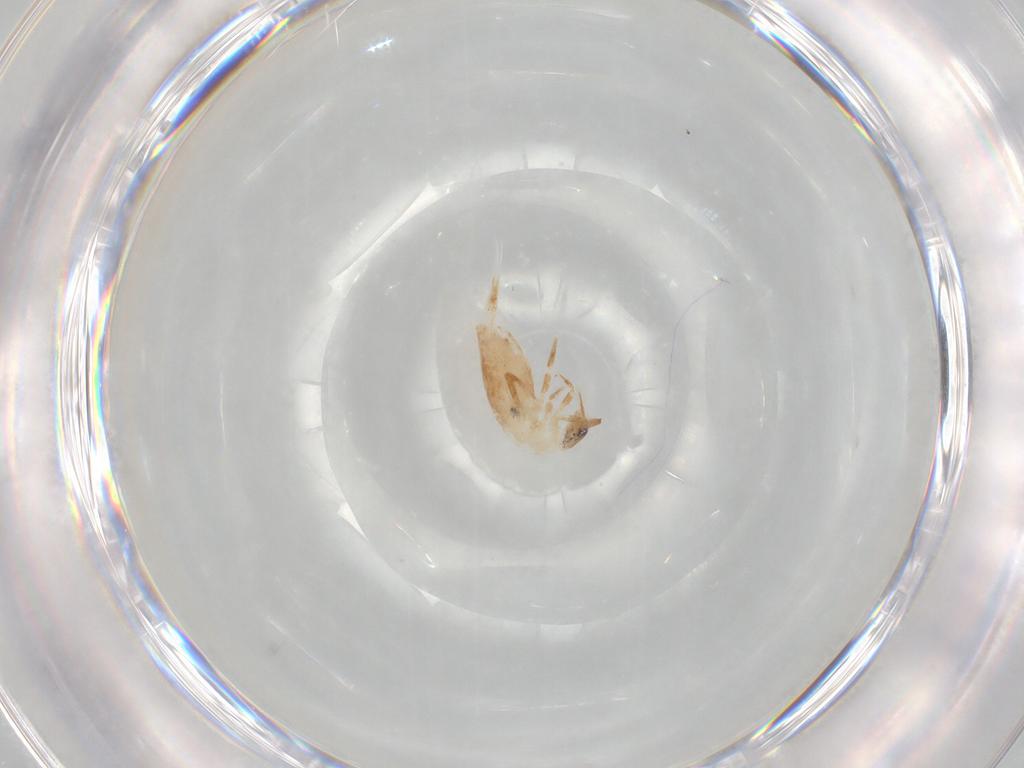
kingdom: Animalia
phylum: Arthropoda
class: Collembola
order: Entomobryomorpha
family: Entomobryidae
